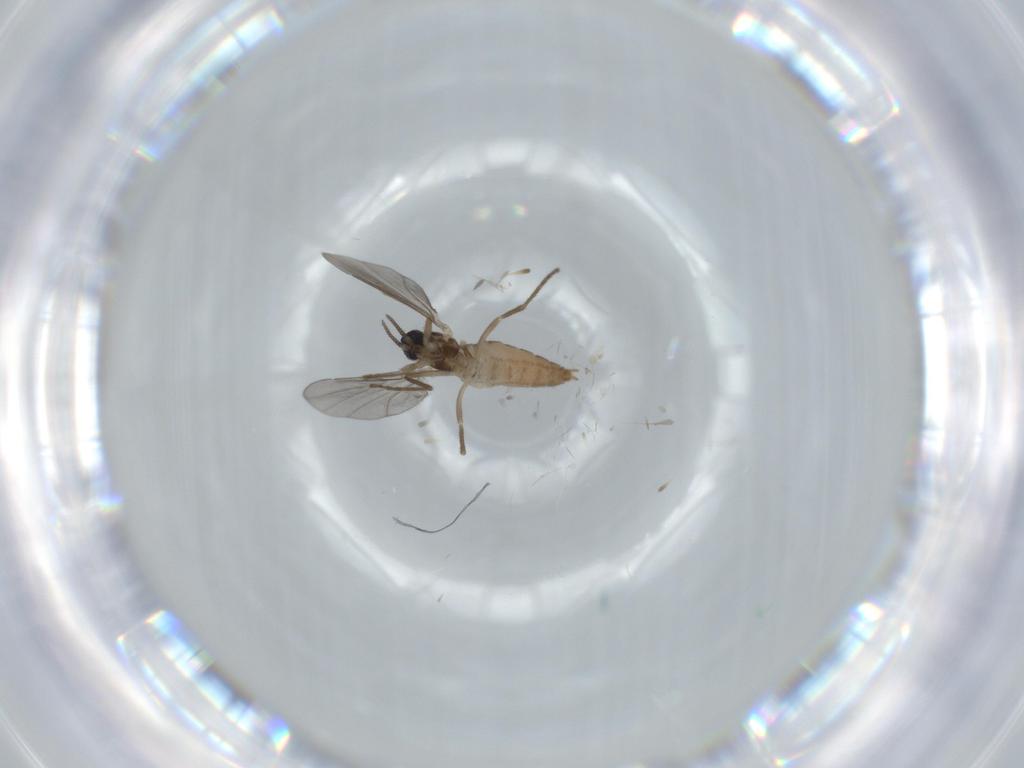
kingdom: Animalia
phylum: Arthropoda
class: Insecta
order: Diptera
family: Cecidomyiidae
